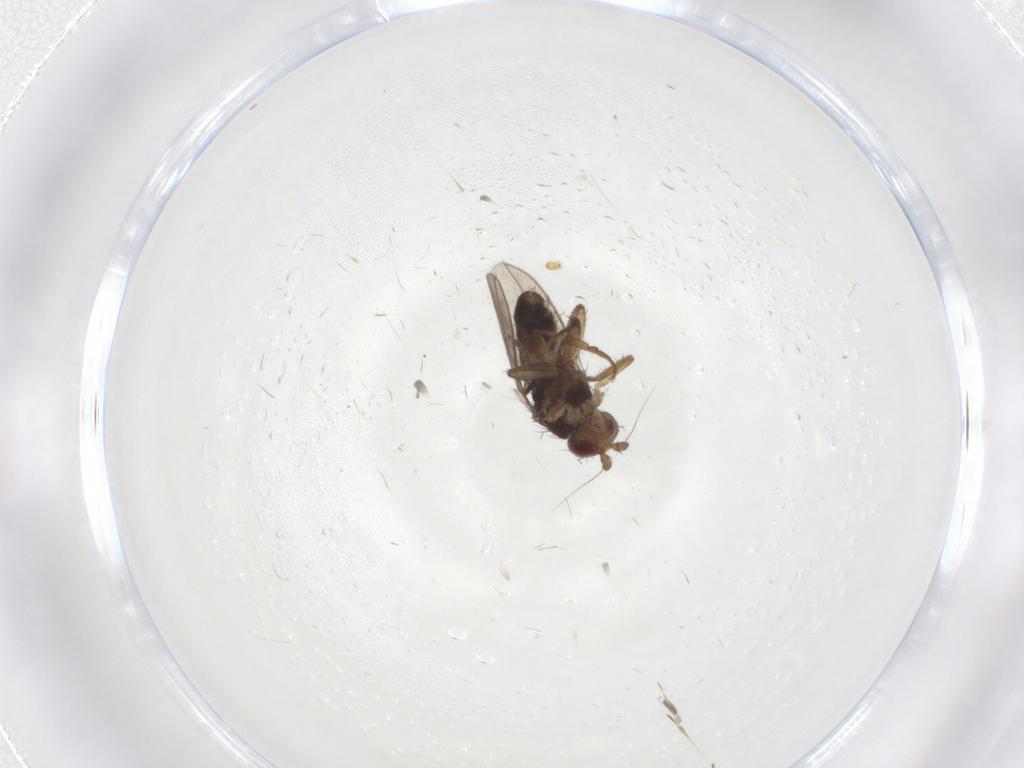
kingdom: Animalia
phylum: Arthropoda
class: Insecta
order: Diptera
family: Sphaeroceridae
